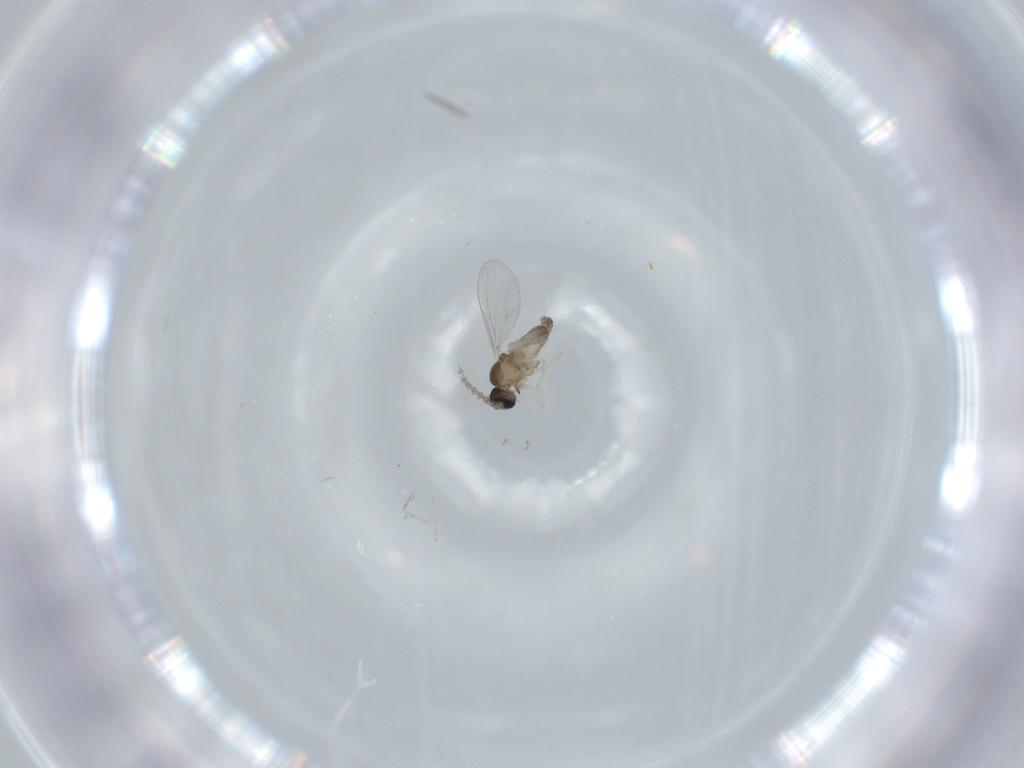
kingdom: Animalia
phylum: Arthropoda
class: Insecta
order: Diptera
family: Cecidomyiidae
